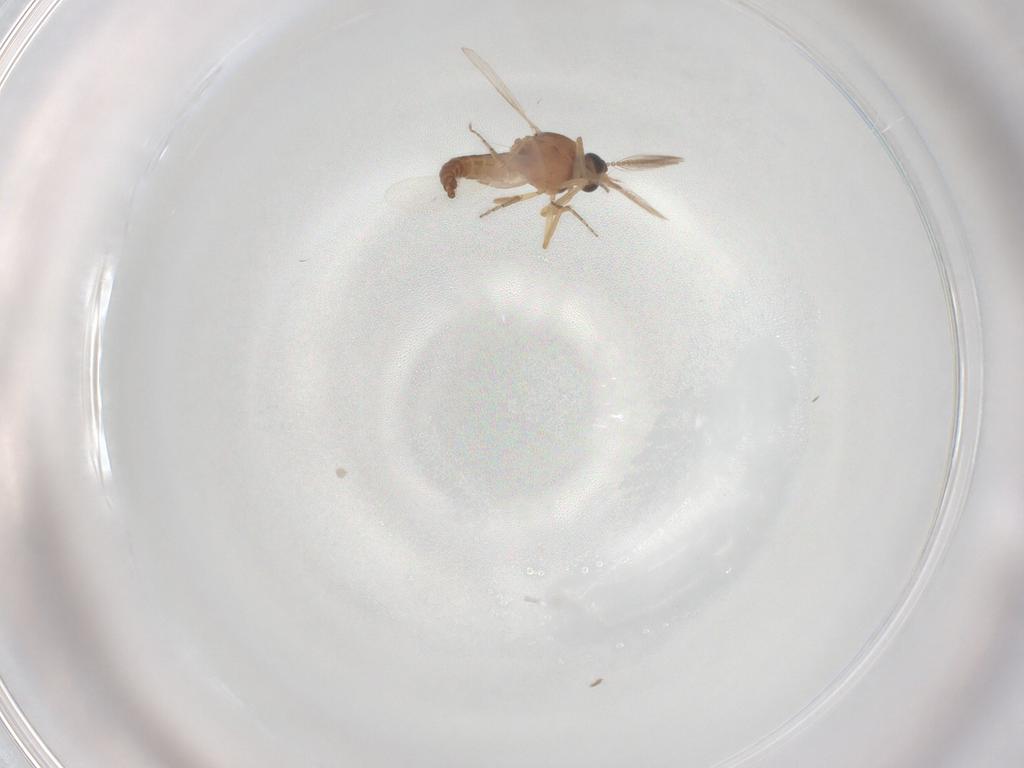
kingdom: Animalia
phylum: Arthropoda
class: Insecta
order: Diptera
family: Ceratopogonidae
